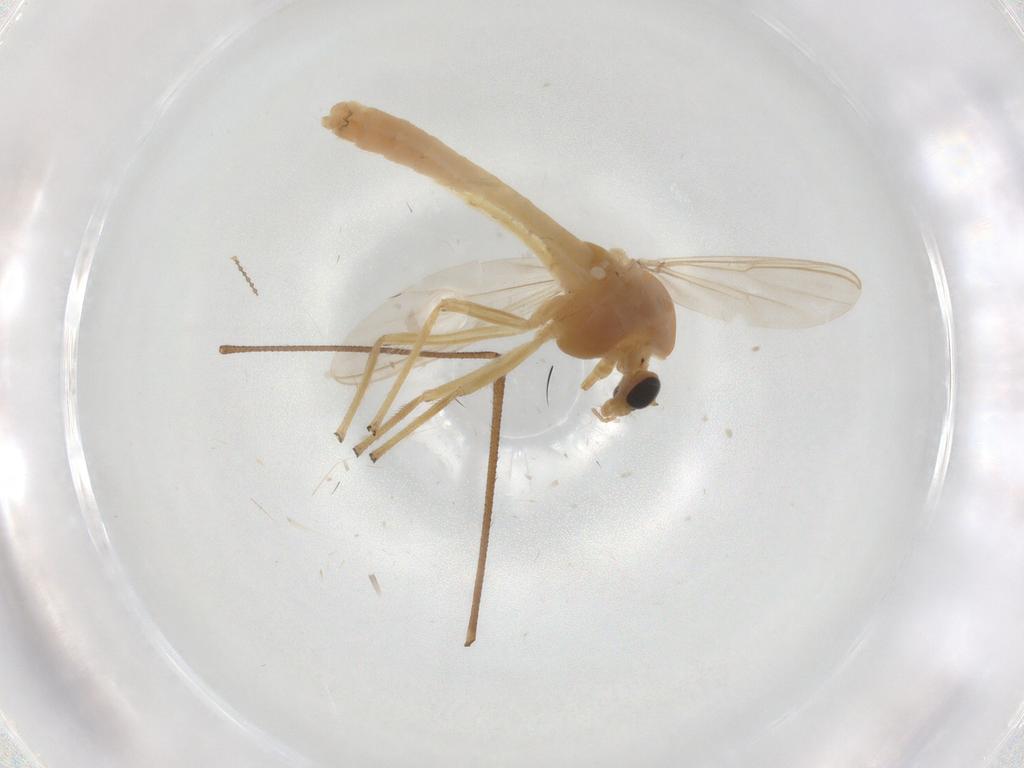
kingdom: Animalia
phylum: Arthropoda
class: Insecta
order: Diptera
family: Chironomidae
